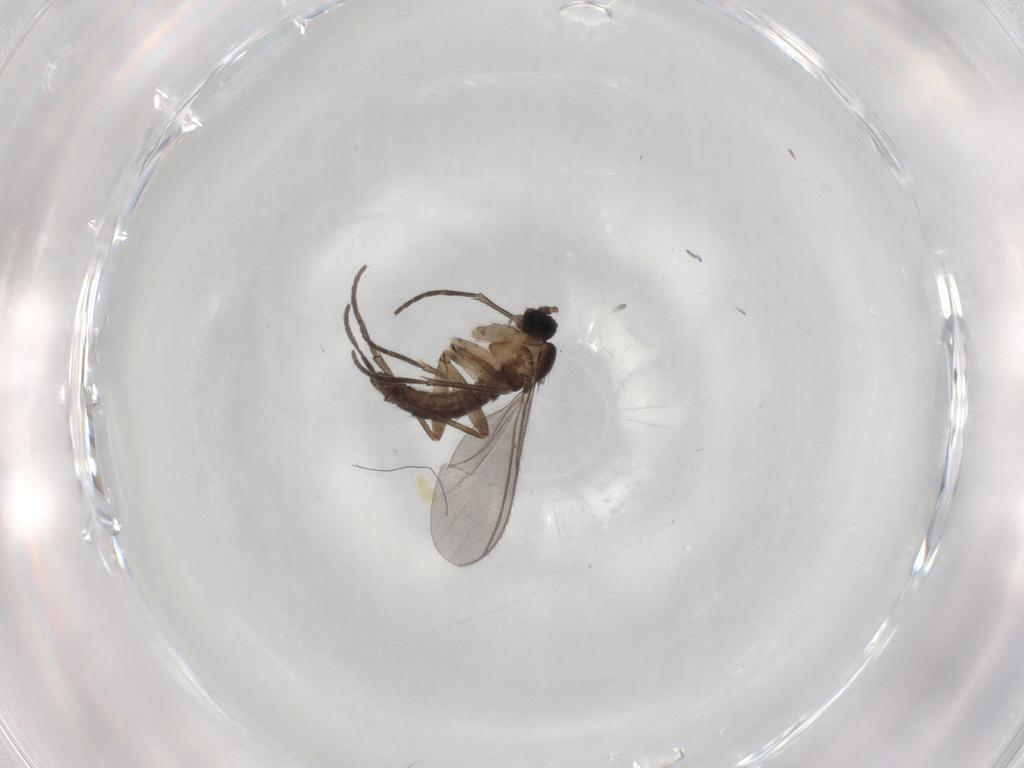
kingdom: Animalia
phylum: Arthropoda
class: Insecta
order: Diptera
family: Sciaridae
